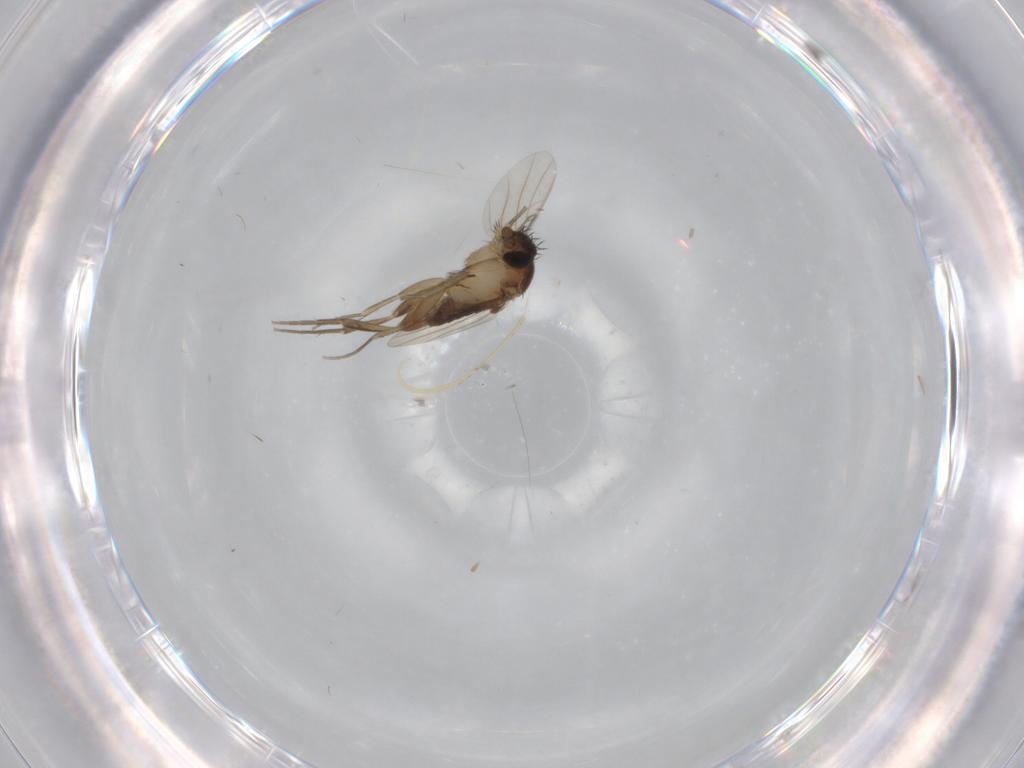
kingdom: Animalia
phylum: Arthropoda
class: Insecta
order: Diptera
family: Phoridae
